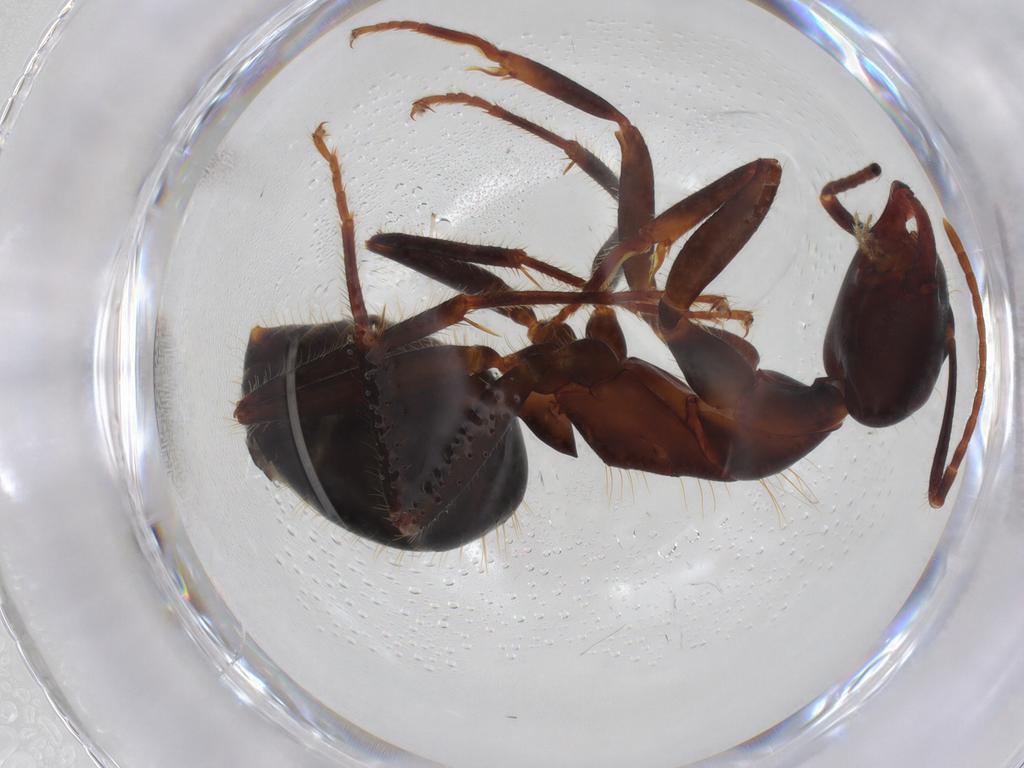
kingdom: Animalia
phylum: Arthropoda
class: Insecta
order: Hymenoptera
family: Formicidae
